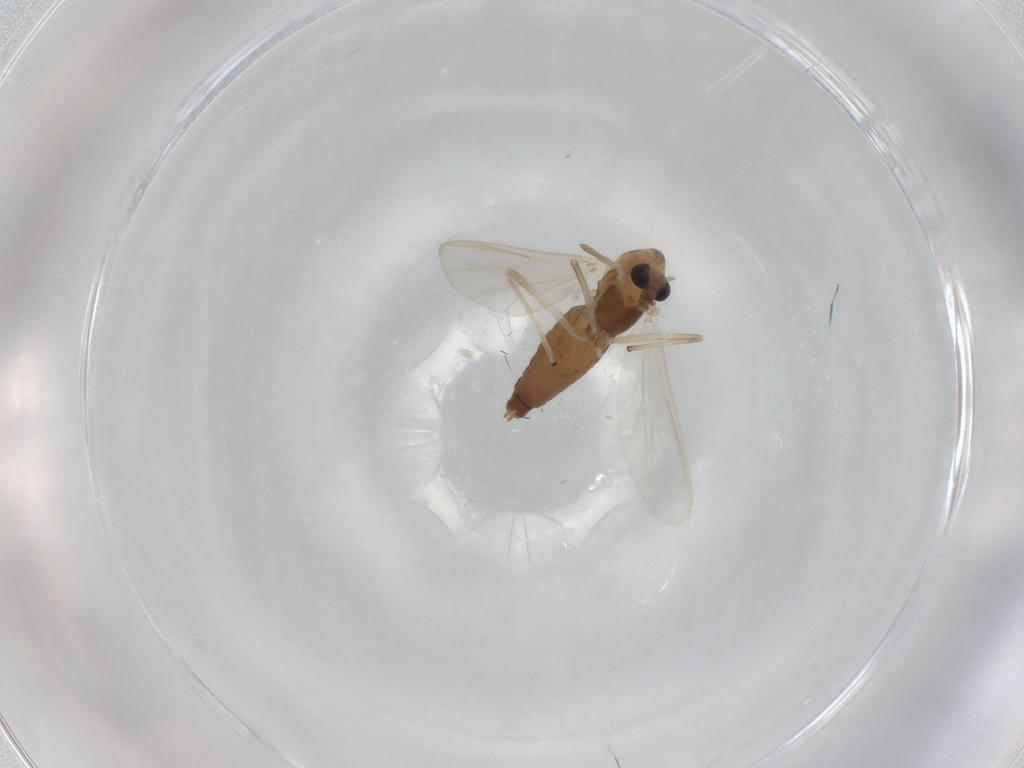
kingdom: Animalia
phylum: Arthropoda
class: Insecta
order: Diptera
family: Chironomidae
